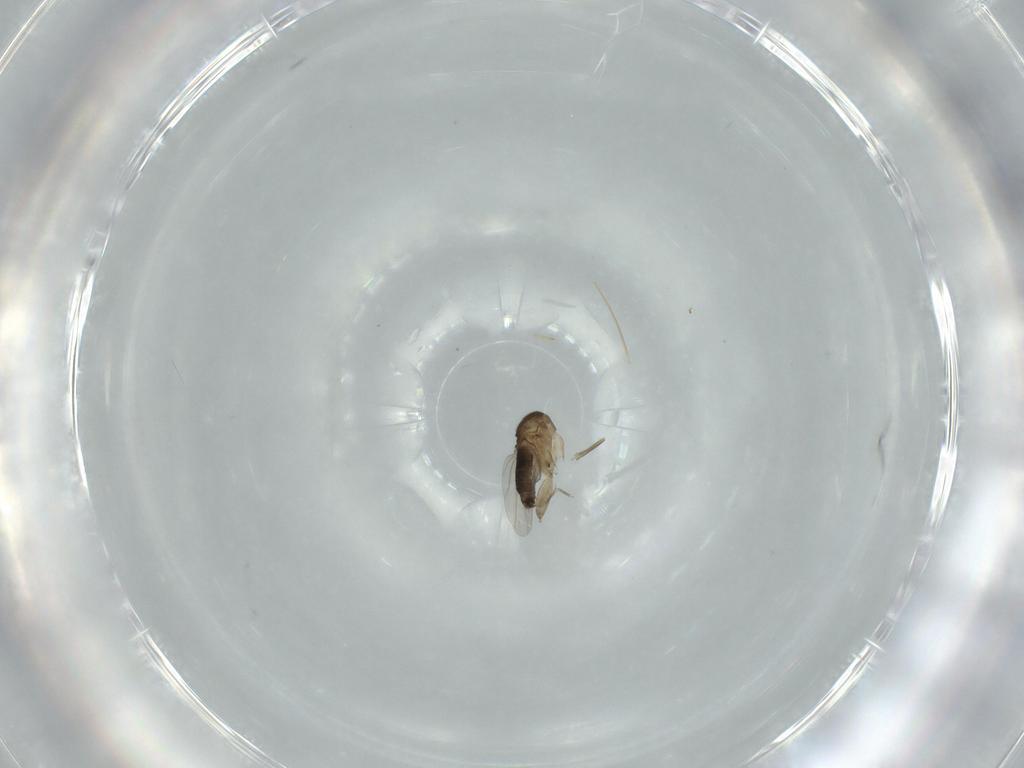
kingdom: Animalia
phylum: Arthropoda
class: Insecta
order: Diptera
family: Phoridae
